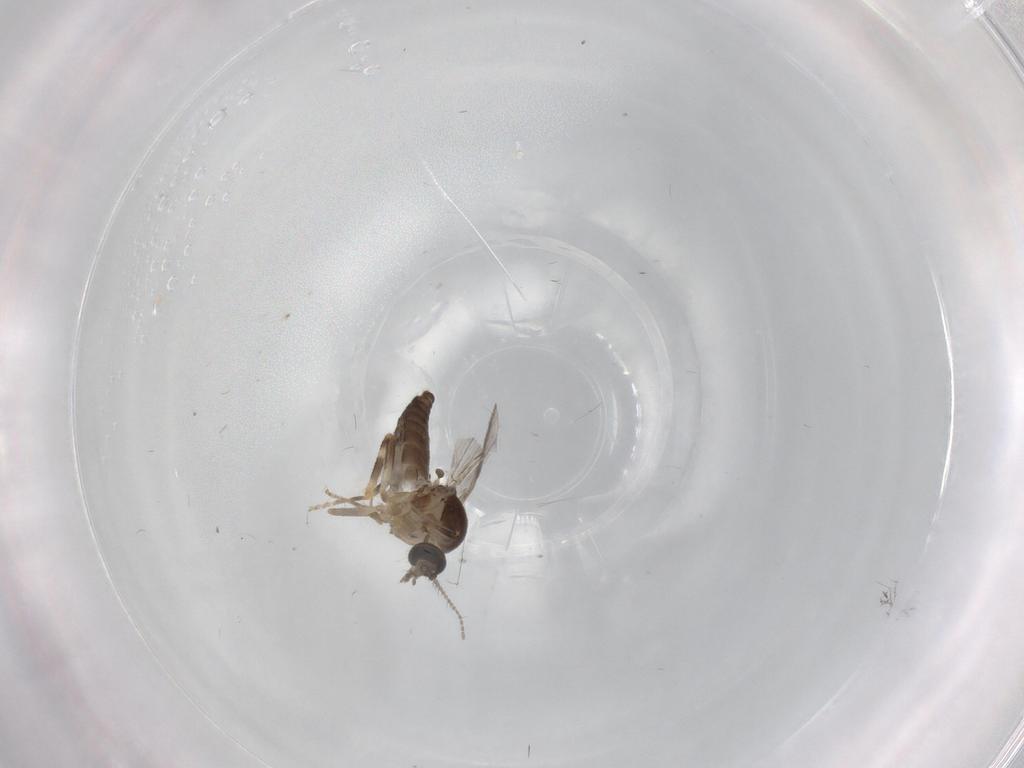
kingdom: Animalia
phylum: Arthropoda
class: Insecta
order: Diptera
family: Ceratopogonidae
